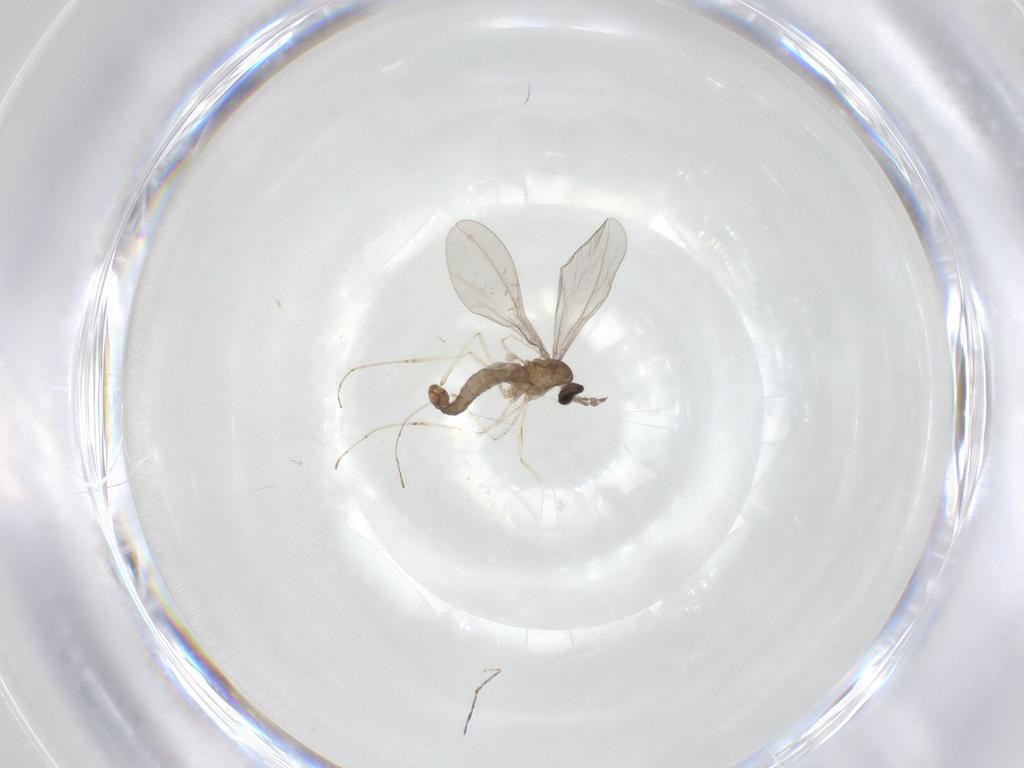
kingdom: Animalia
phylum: Arthropoda
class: Insecta
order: Diptera
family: Cecidomyiidae
